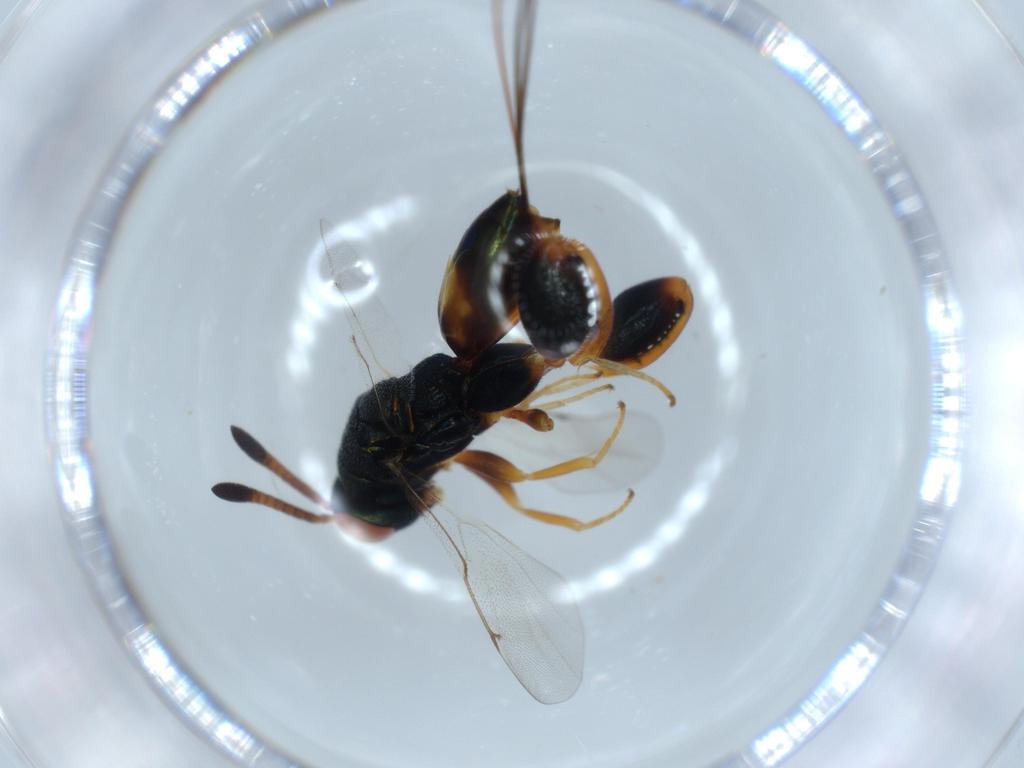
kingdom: Animalia
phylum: Arthropoda
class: Insecta
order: Hymenoptera
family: Torymidae
